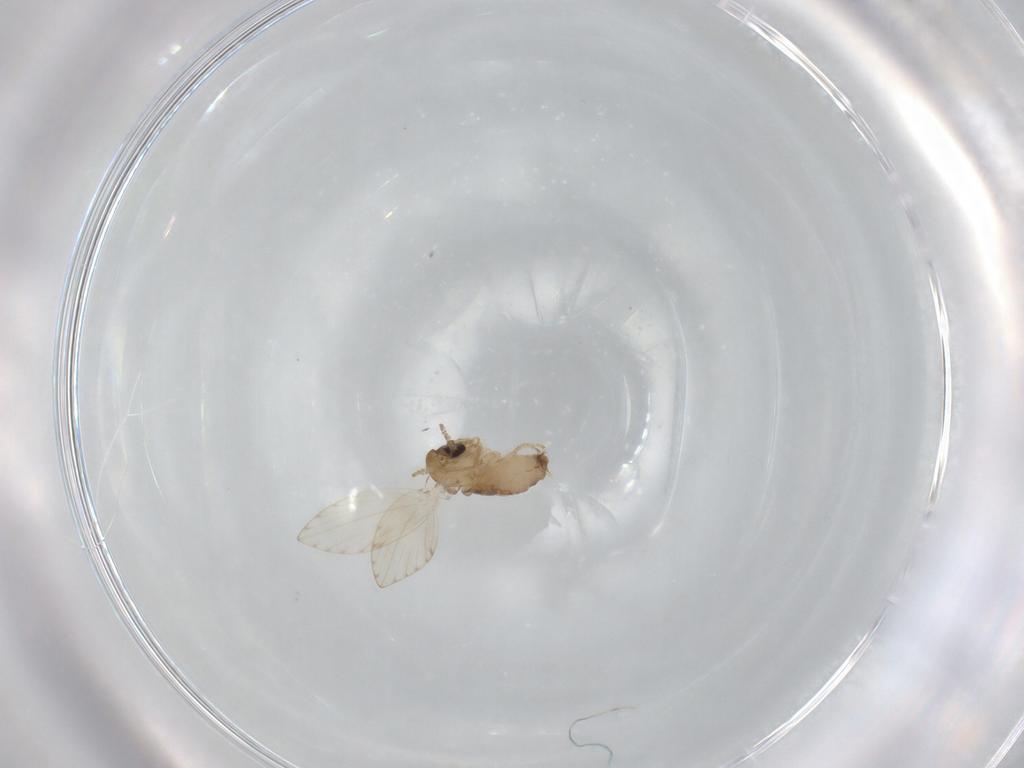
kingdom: Animalia
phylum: Arthropoda
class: Insecta
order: Diptera
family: Psychodidae
